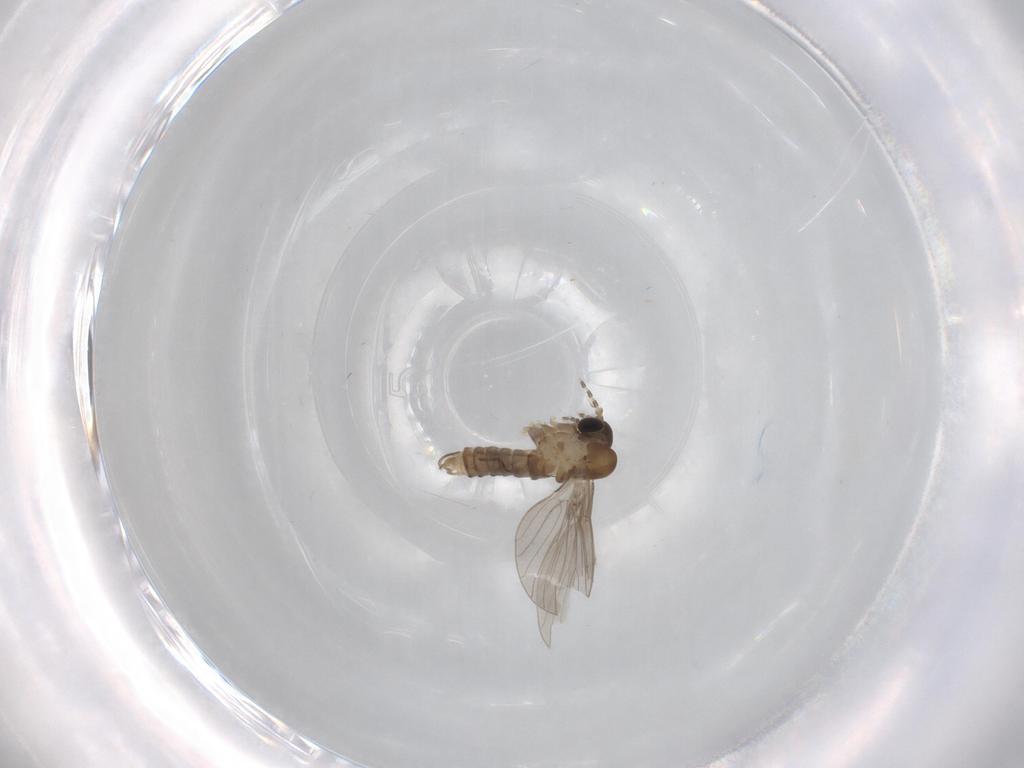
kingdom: Animalia
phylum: Arthropoda
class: Insecta
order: Diptera
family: Psychodidae
